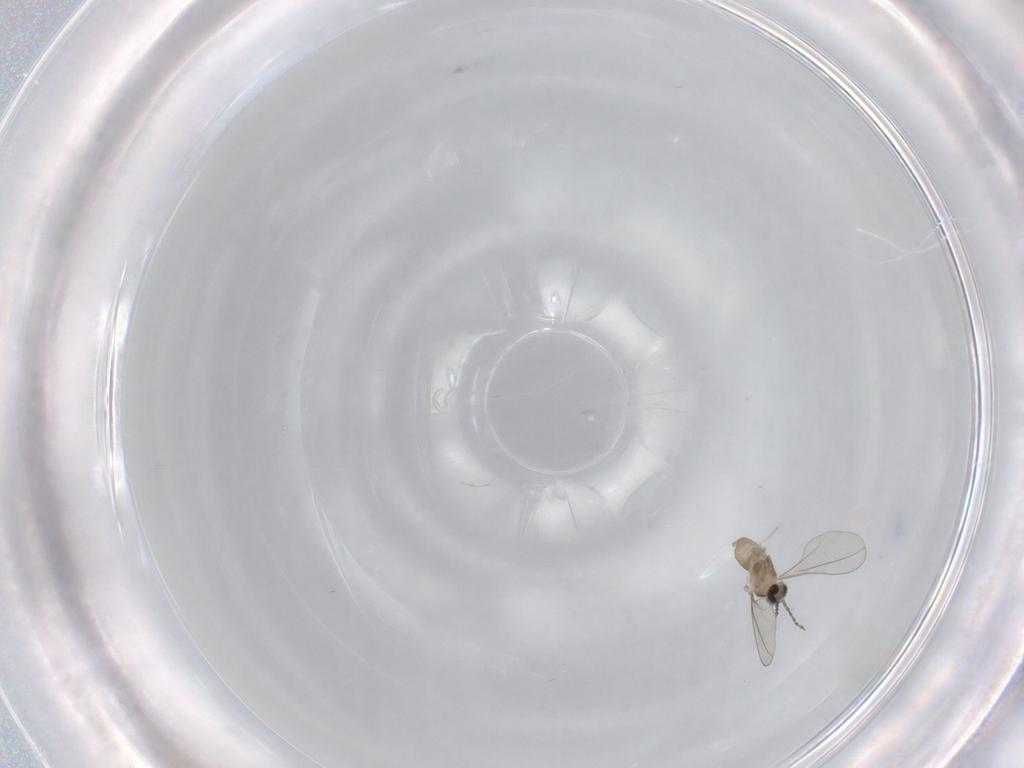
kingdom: Animalia
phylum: Arthropoda
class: Insecta
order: Diptera
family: Cecidomyiidae
